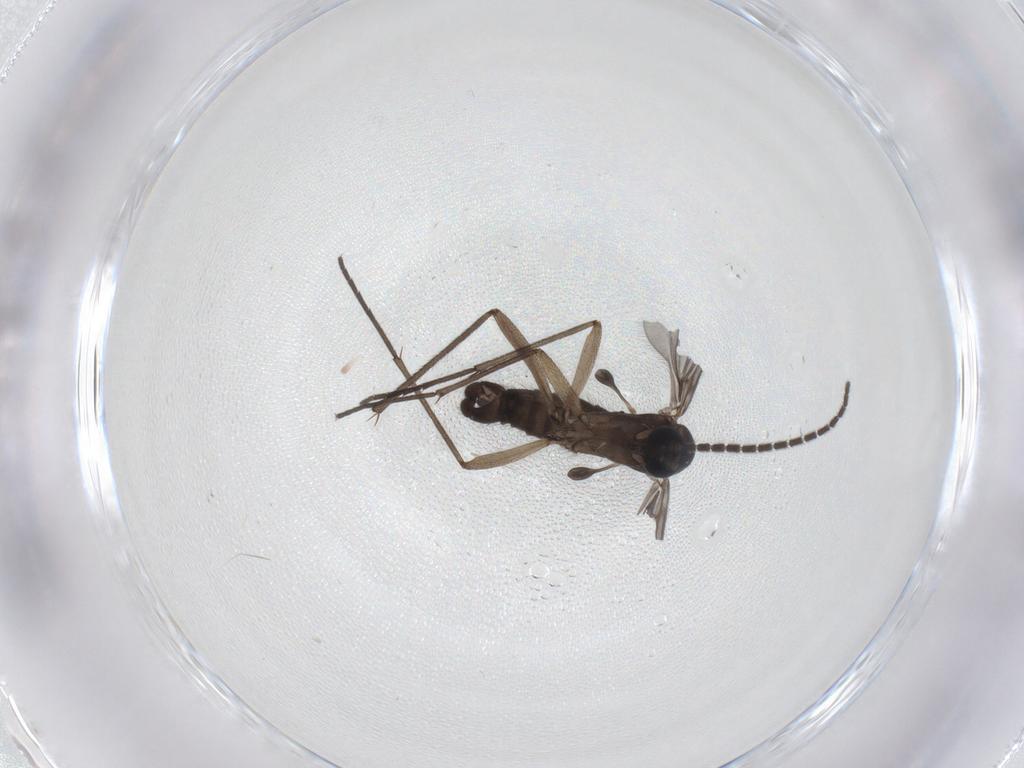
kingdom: Animalia
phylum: Arthropoda
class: Insecta
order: Diptera
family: Sciaridae
